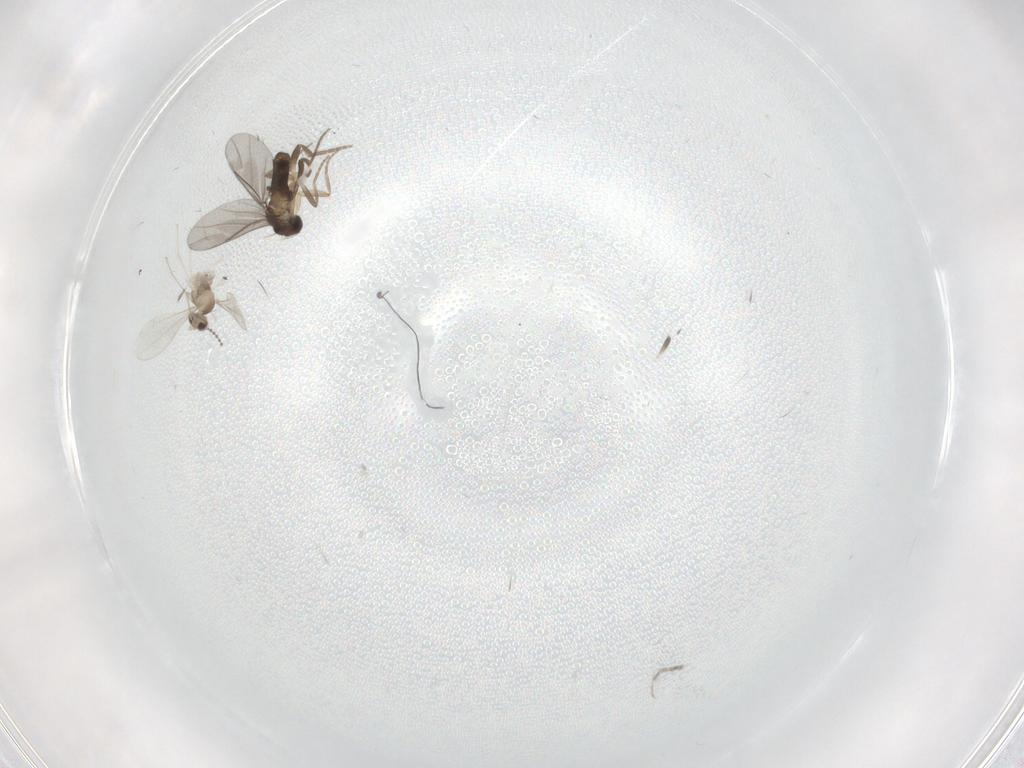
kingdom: Animalia
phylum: Arthropoda
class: Insecta
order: Diptera
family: Cecidomyiidae
